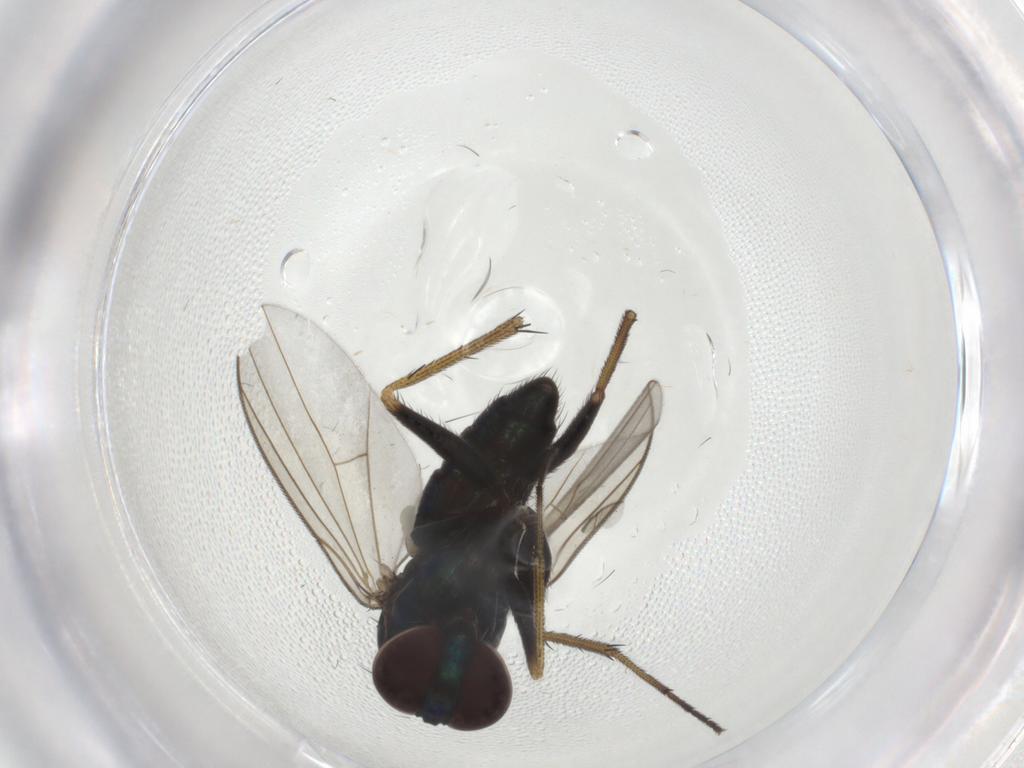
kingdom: Animalia
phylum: Arthropoda
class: Insecta
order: Diptera
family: Dolichopodidae
